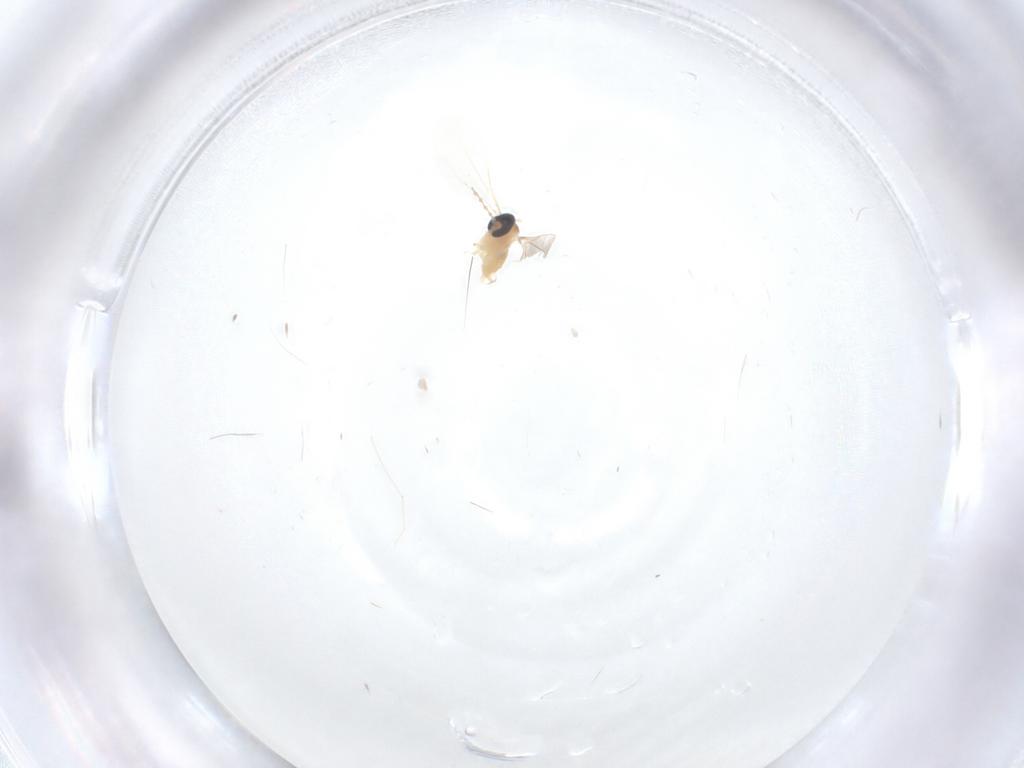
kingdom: Animalia
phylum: Arthropoda
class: Insecta
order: Diptera
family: Cecidomyiidae
